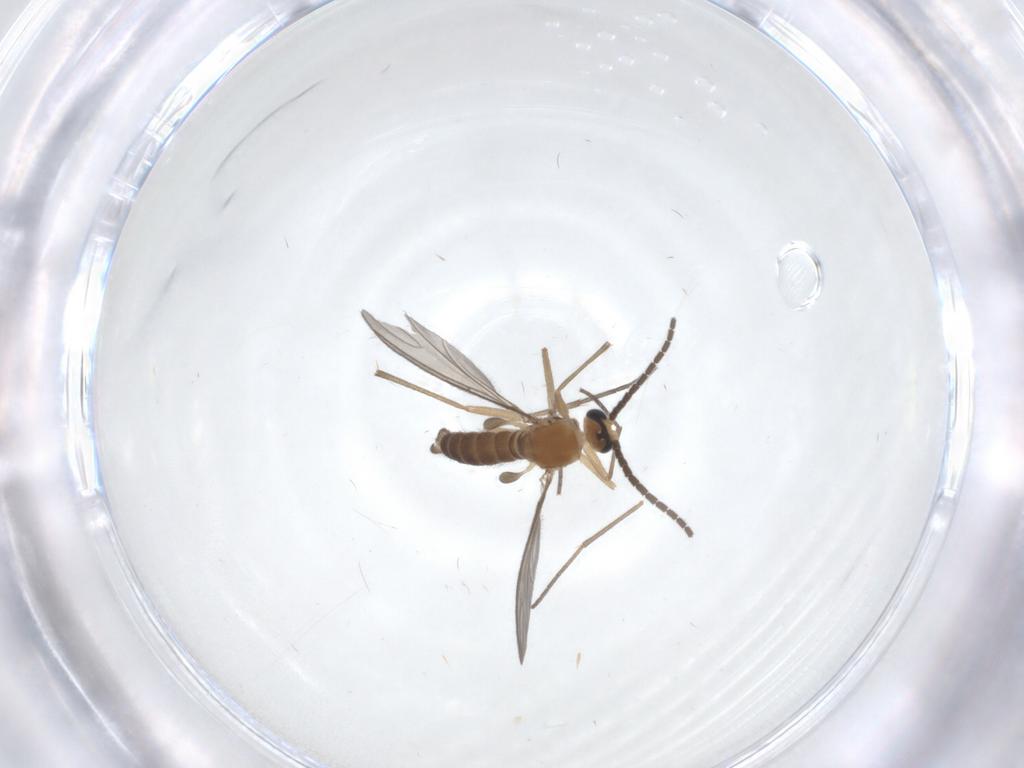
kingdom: Animalia
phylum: Arthropoda
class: Insecta
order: Diptera
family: Sciaridae
